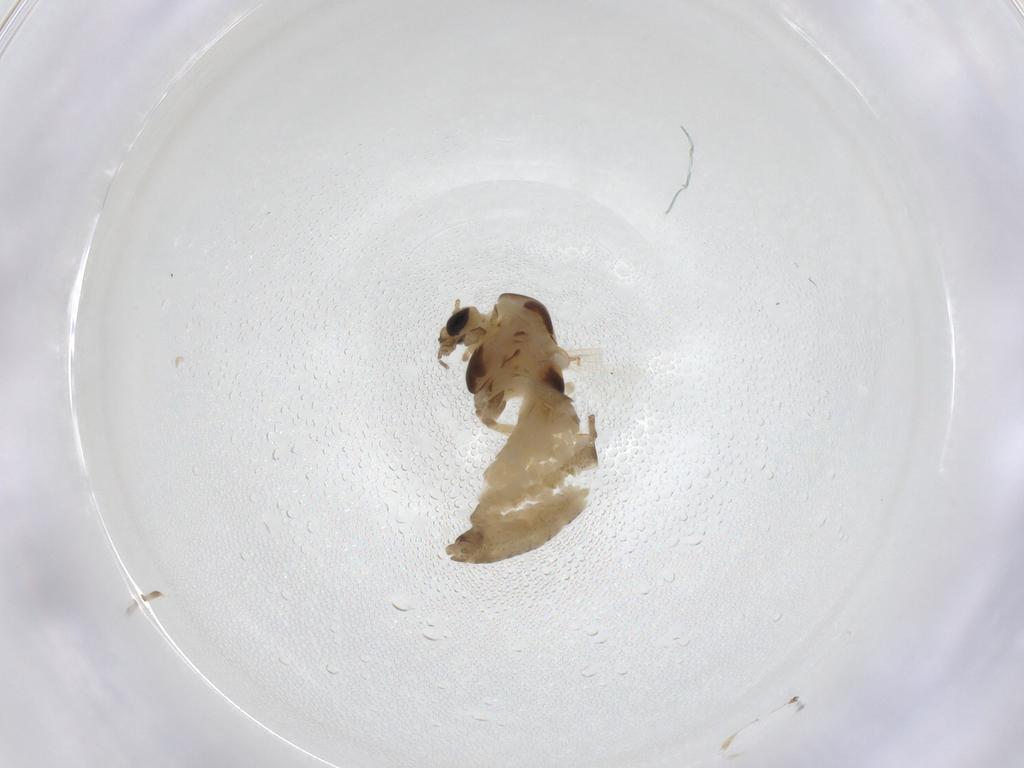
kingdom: Animalia
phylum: Arthropoda
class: Insecta
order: Diptera
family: Chironomidae
